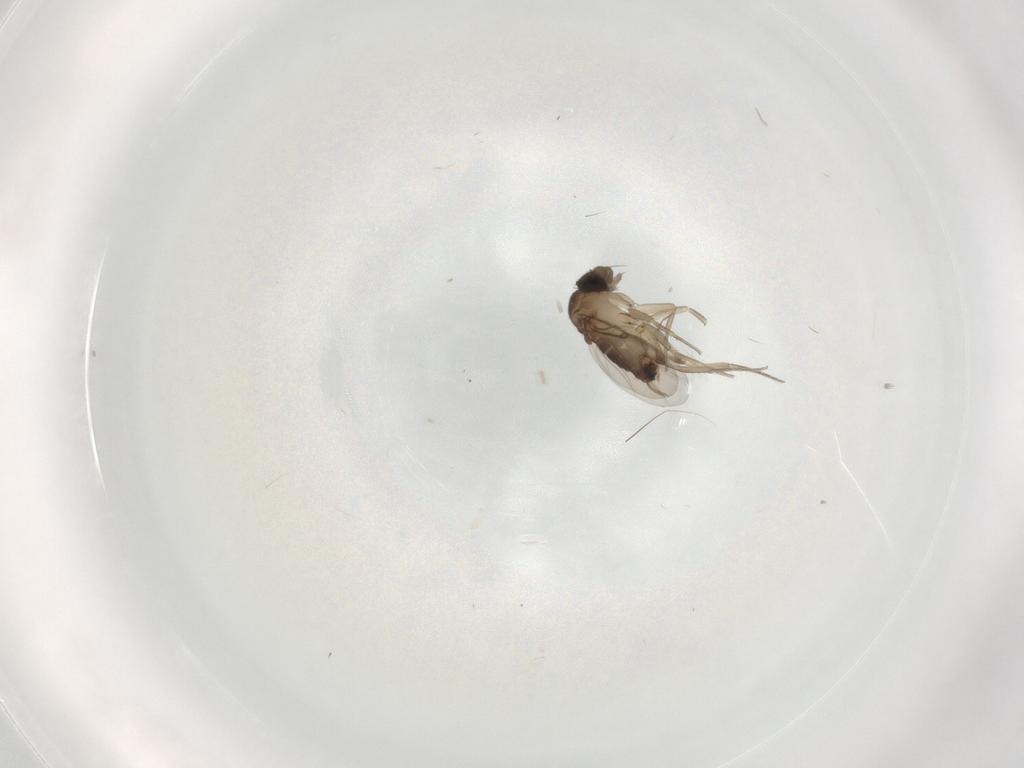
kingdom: Animalia
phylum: Arthropoda
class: Insecta
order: Diptera
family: Phoridae
